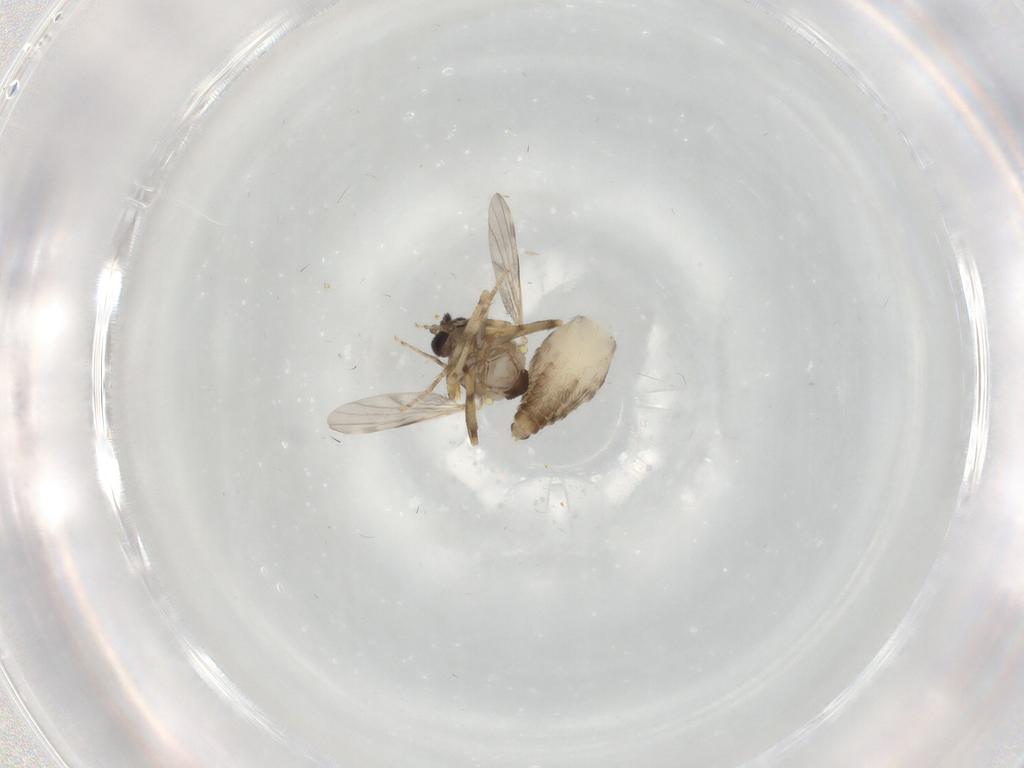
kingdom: Animalia
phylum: Arthropoda
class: Insecta
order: Diptera
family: Ceratopogonidae
